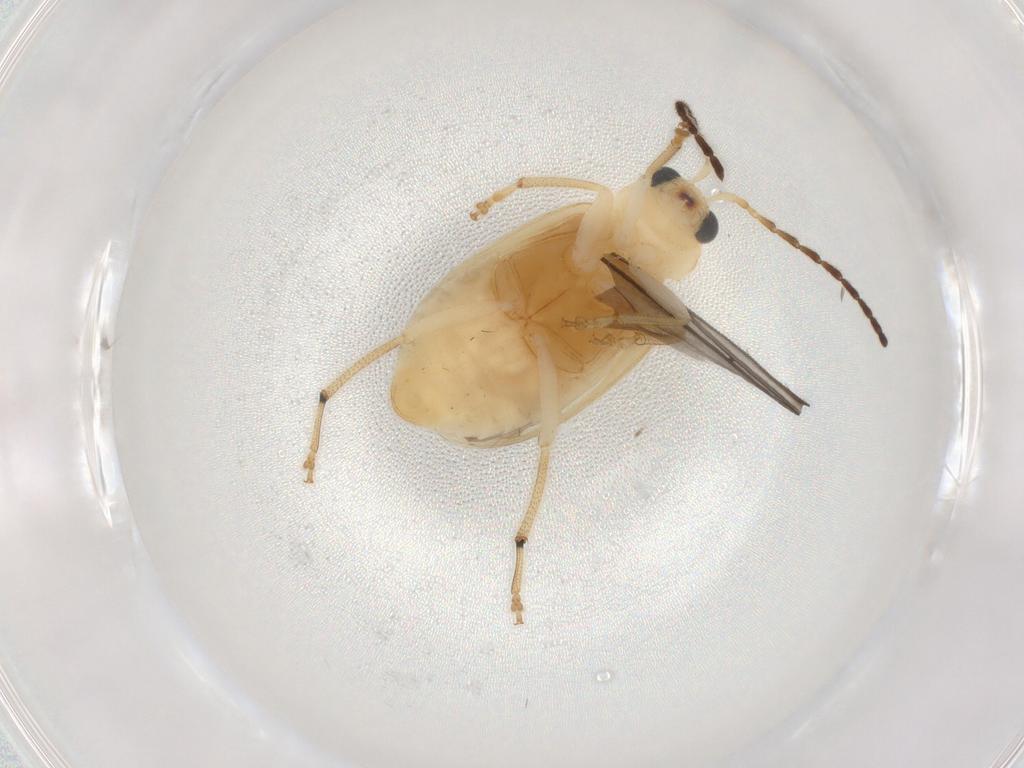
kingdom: Animalia
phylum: Arthropoda
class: Insecta
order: Coleoptera
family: Chrysomelidae
